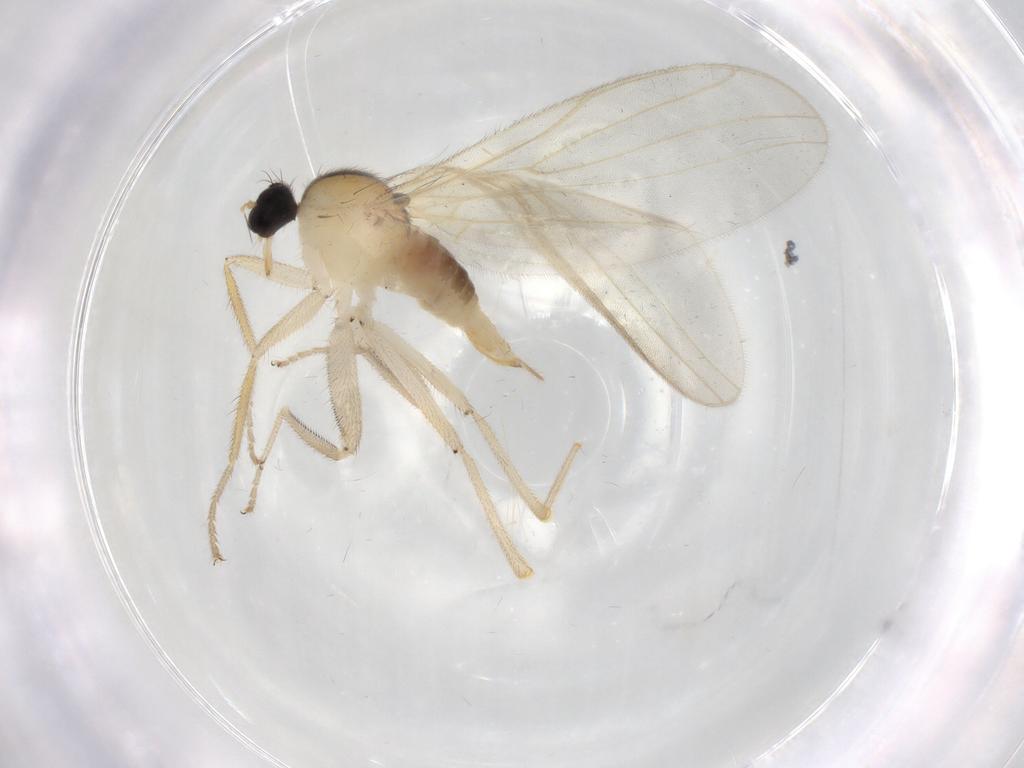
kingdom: Animalia
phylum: Arthropoda
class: Insecta
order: Diptera
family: Hybotidae
